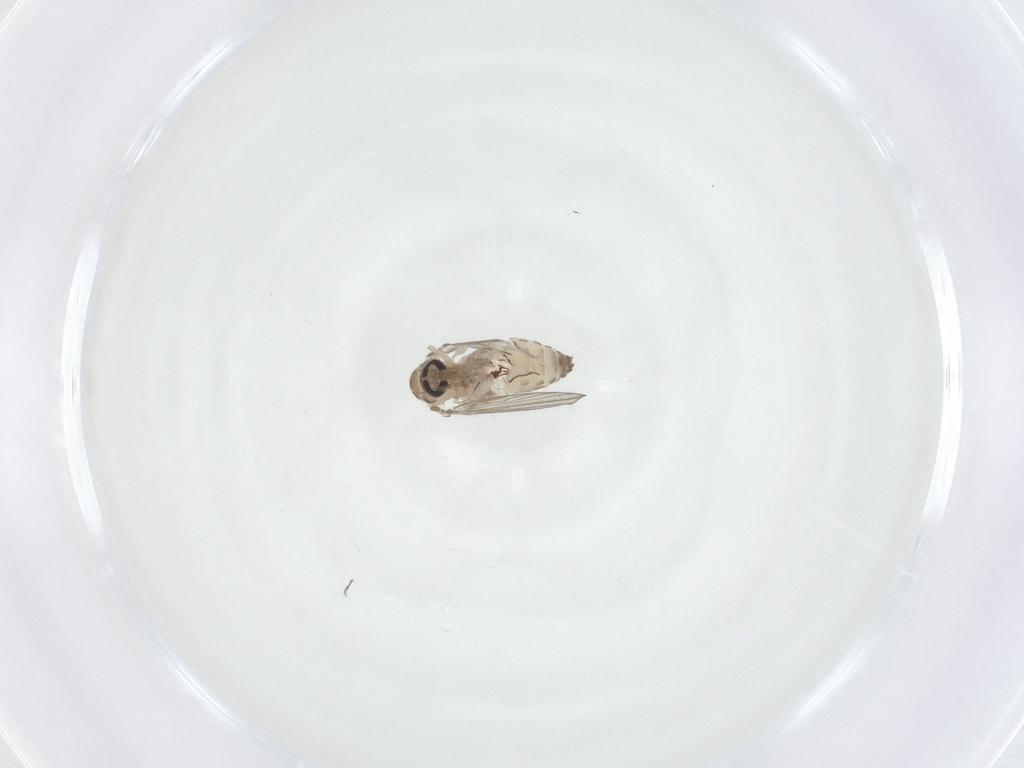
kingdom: Animalia
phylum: Arthropoda
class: Insecta
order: Diptera
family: Psychodidae
